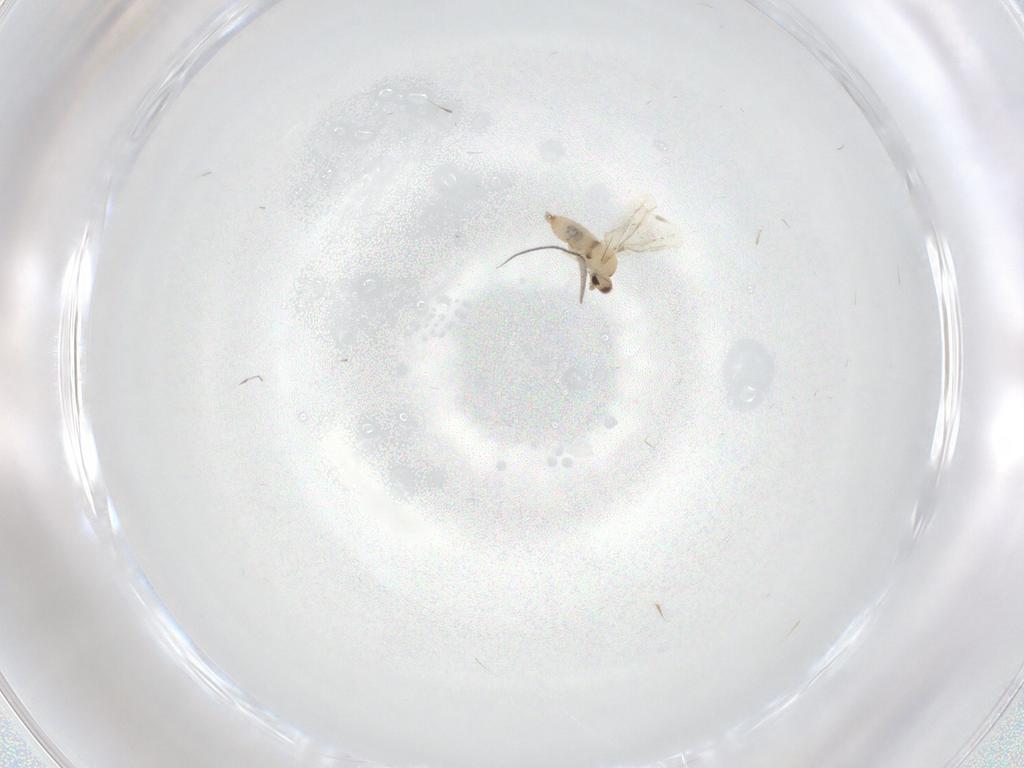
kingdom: Animalia
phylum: Arthropoda
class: Insecta
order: Diptera
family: Cecidomyiidae
